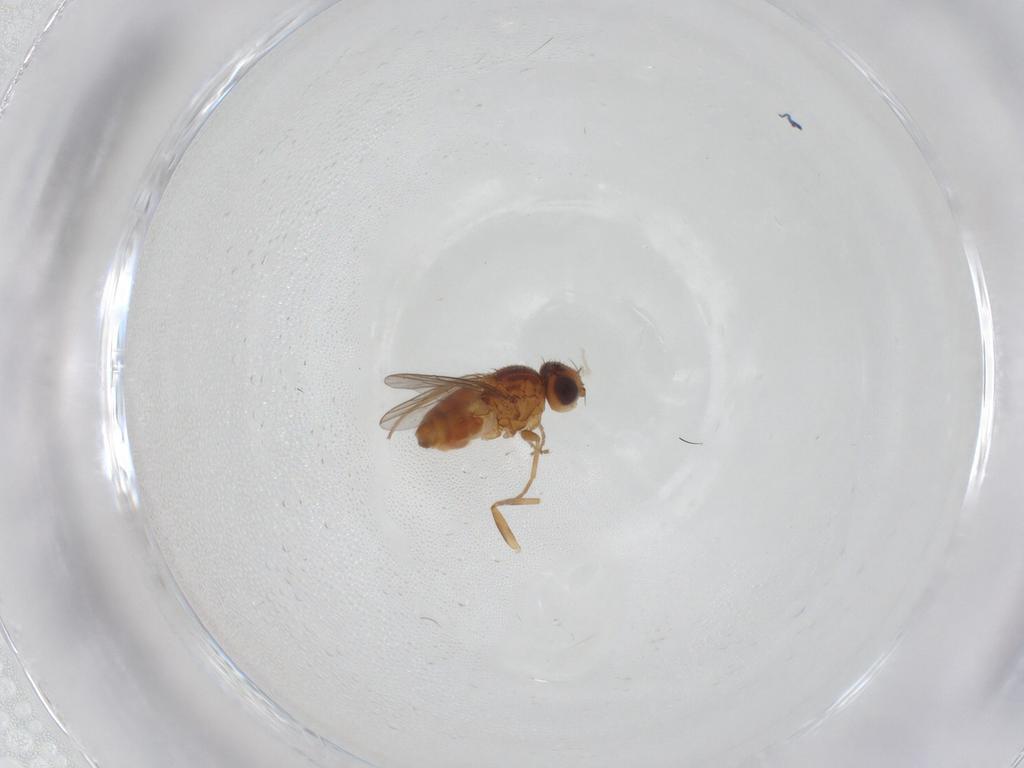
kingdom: Animalia
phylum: Arthropoda
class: Insecta
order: Diptera
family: Chloropidae
